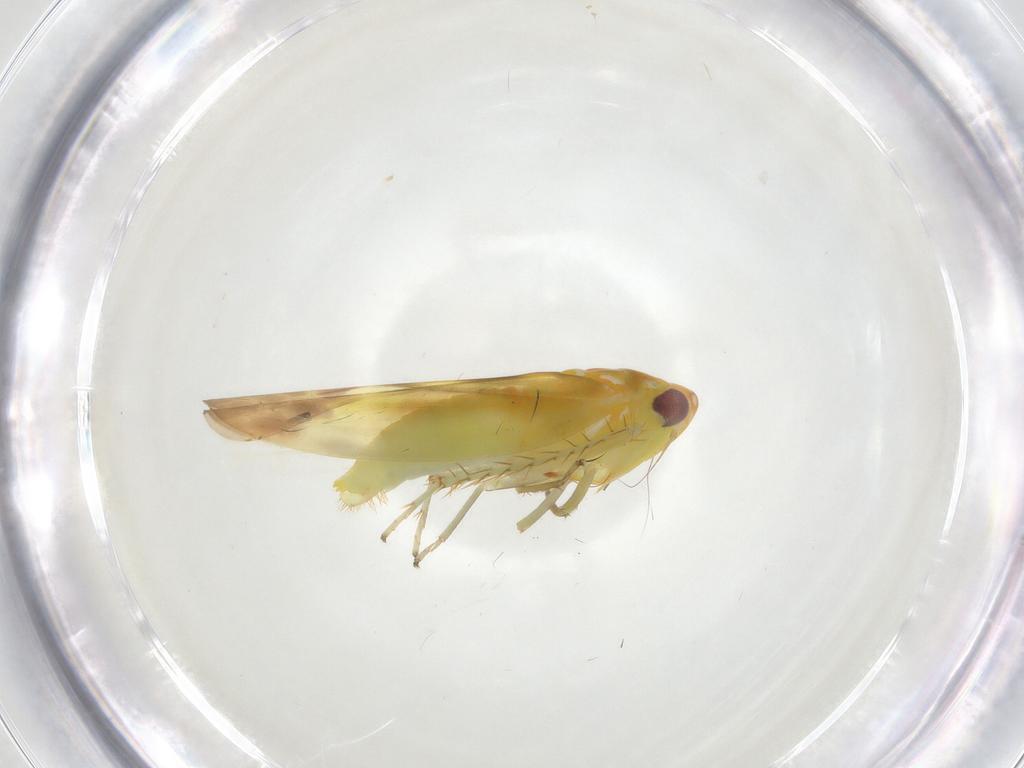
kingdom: Animalia
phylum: Arthropoda
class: Insecta
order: Hemiptera
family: Cicadellidae
